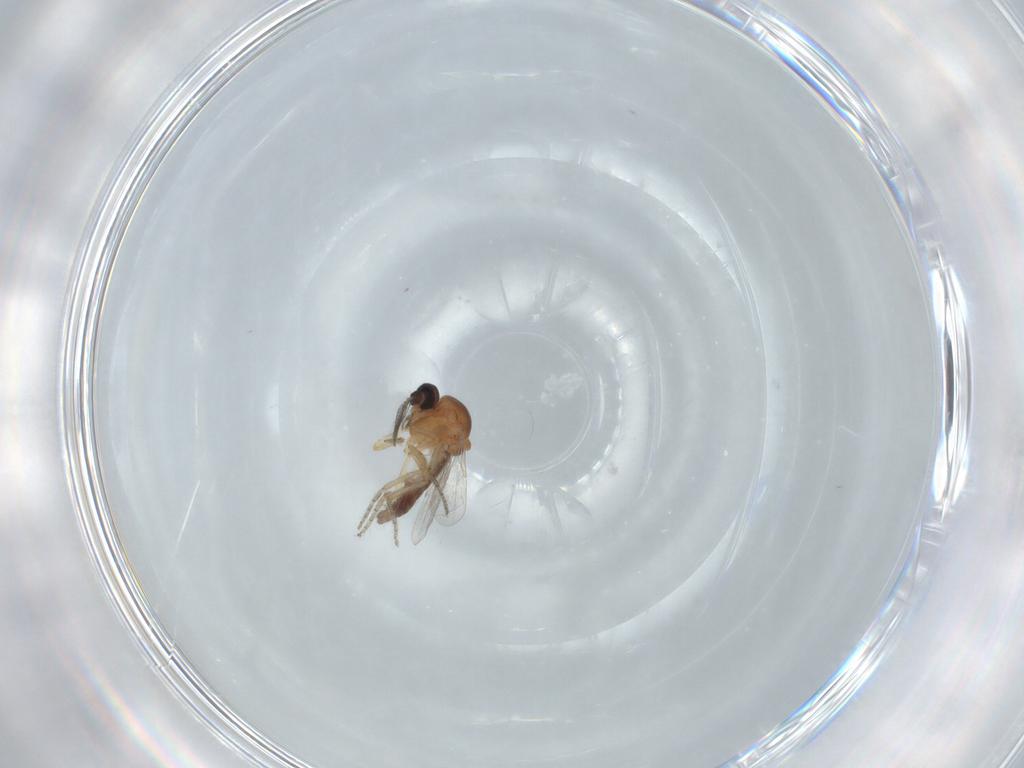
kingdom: Animalia
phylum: Arthropoda
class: Insecta
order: Diptera
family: Ceratopogonidae
